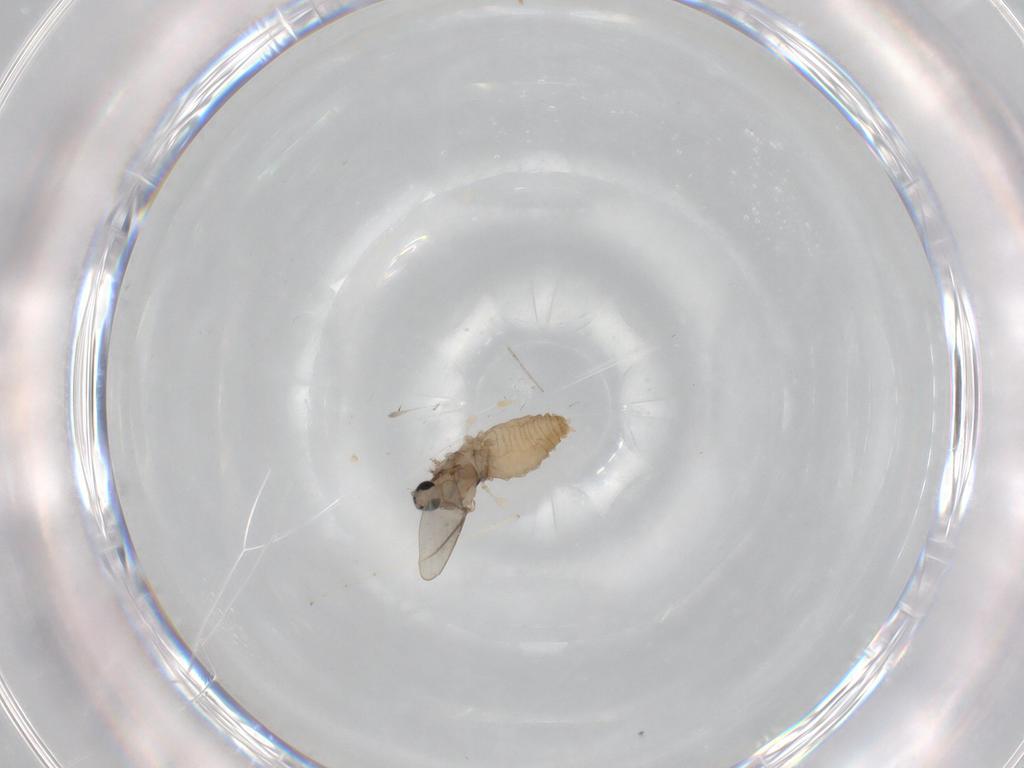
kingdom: Animalia
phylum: Arthropoda
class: Insecta
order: Diptera
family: Cecidomyiidae
